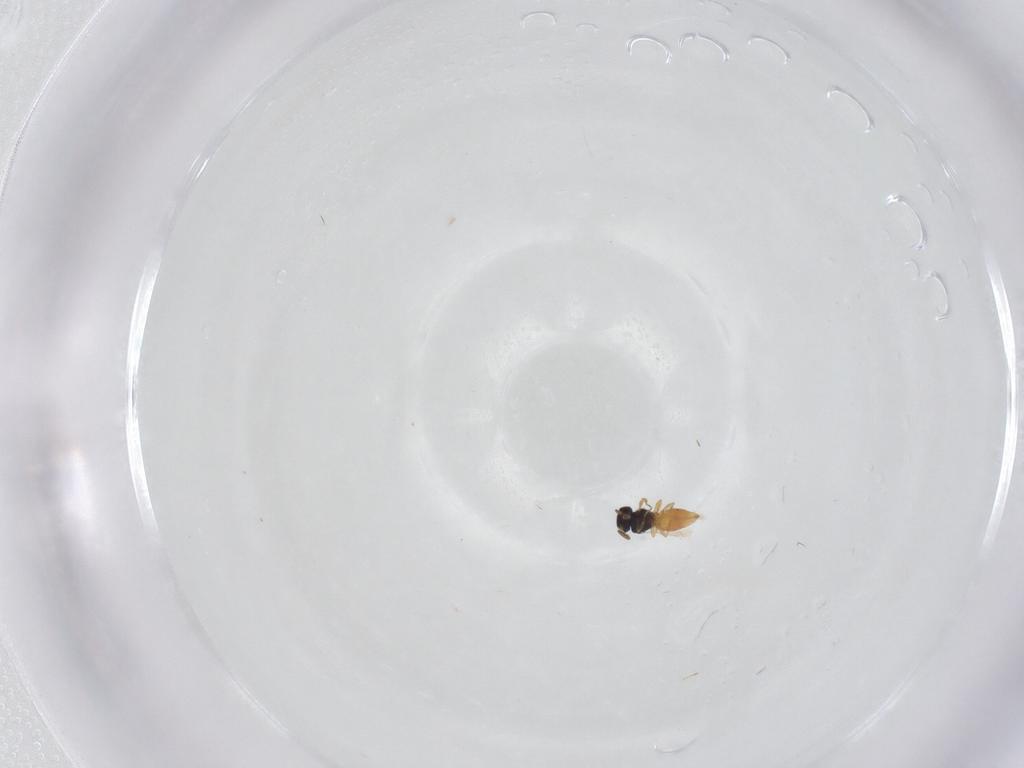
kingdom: Animalia
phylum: Arthropoda
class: Insecta
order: Hymenoptera
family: Scelionidae
